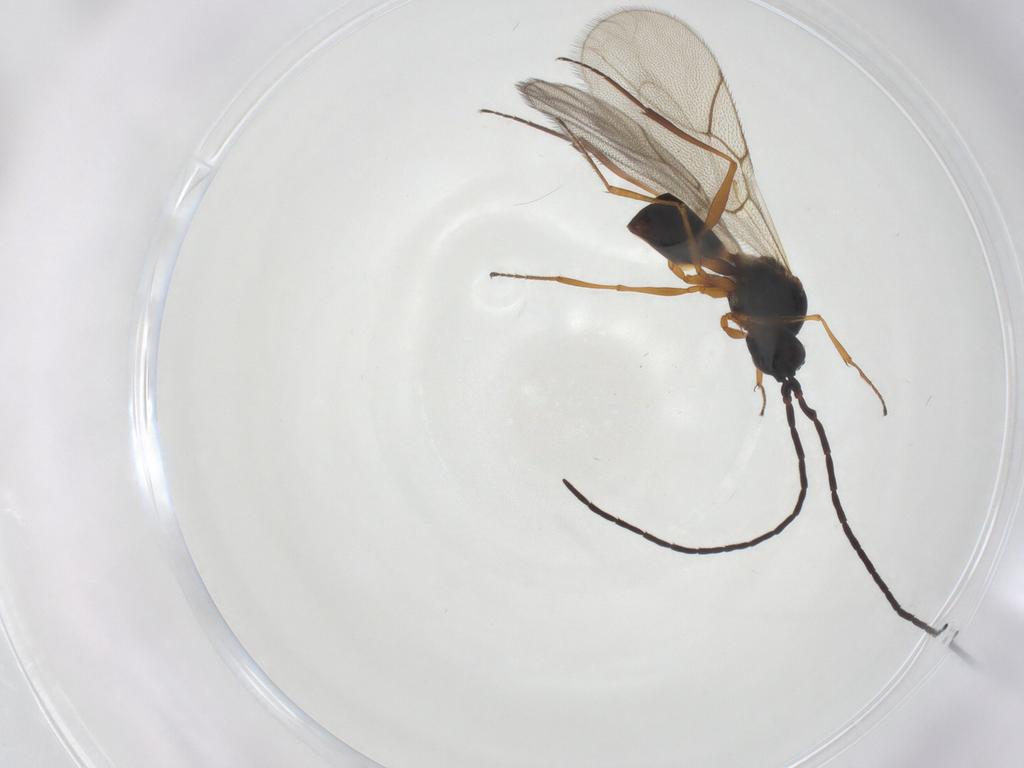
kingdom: Animalia
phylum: Arthropoda
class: Insecta
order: Hymenoptera
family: Figitidae
